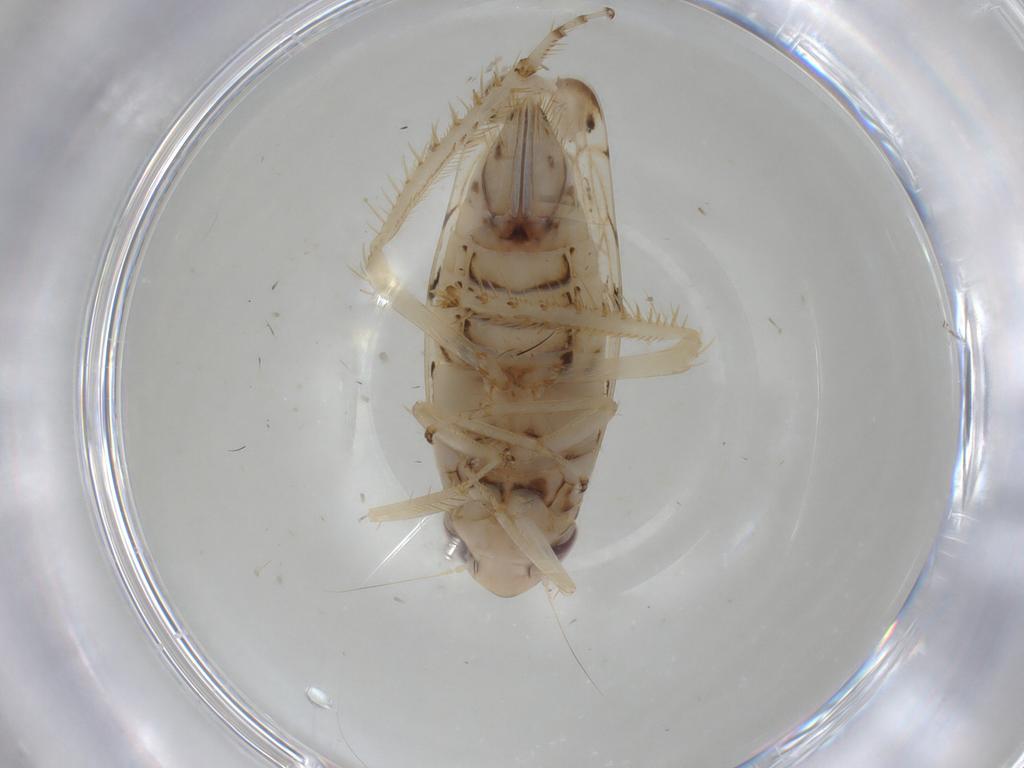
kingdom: Animalia
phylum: Arthropoda
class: Insecta
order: Hemiptera
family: Cicadellidae
